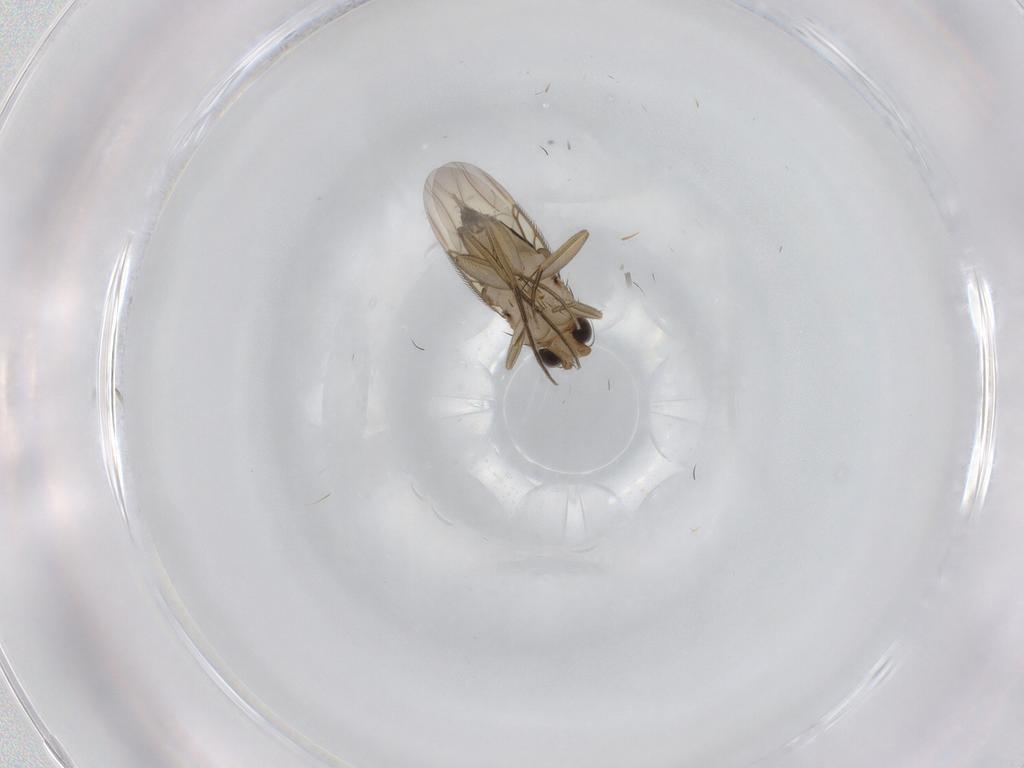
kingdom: Animalia
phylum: Arthropoda
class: Insecta
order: Diptera
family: Phoridae
